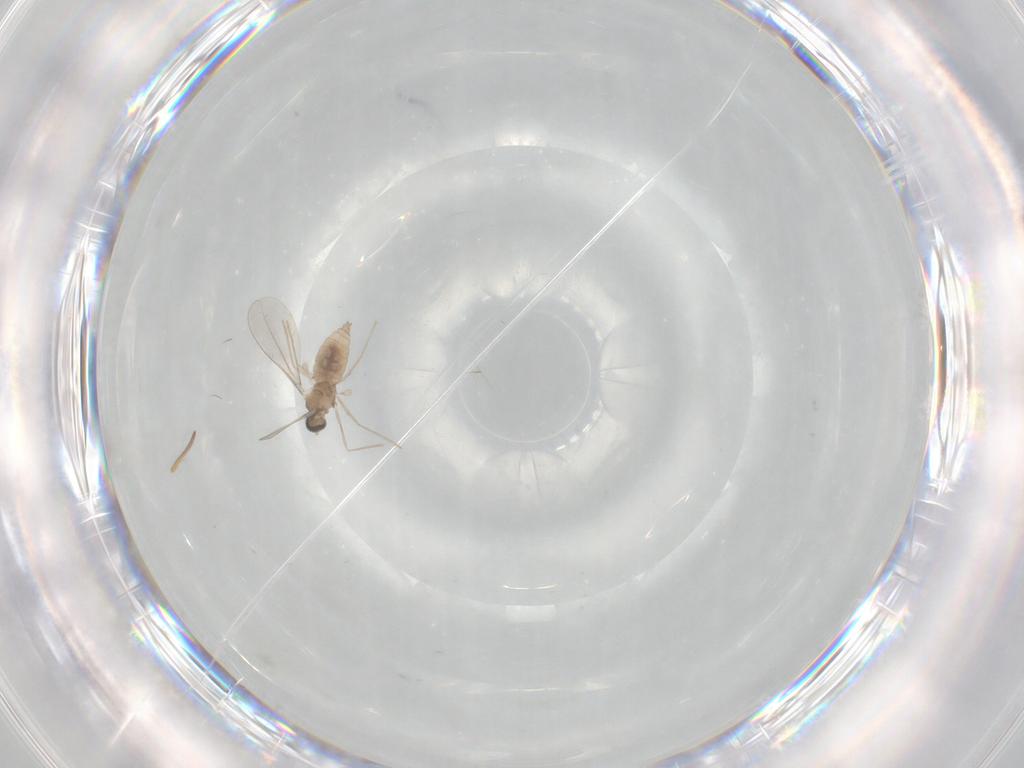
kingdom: Animalia
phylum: Arthropoda
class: Insecta
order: Diptera
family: Cecidomyiidae
